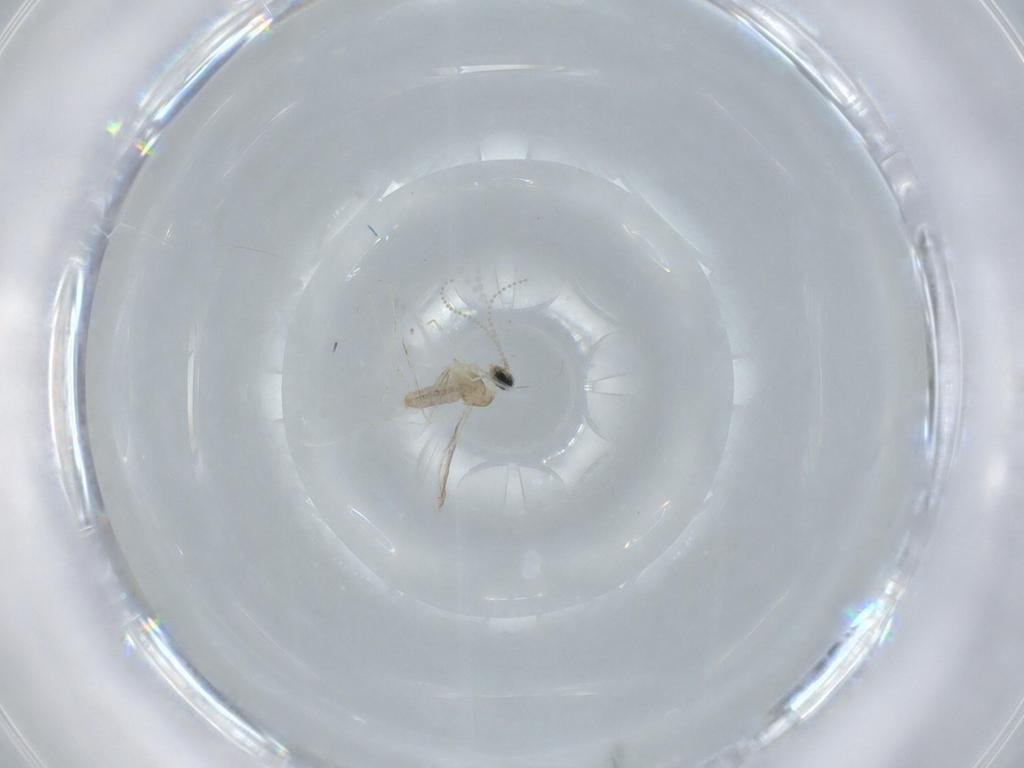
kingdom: Animalia
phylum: Arthropoda
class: Insecta
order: Diptera
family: Cecidomyiidae
